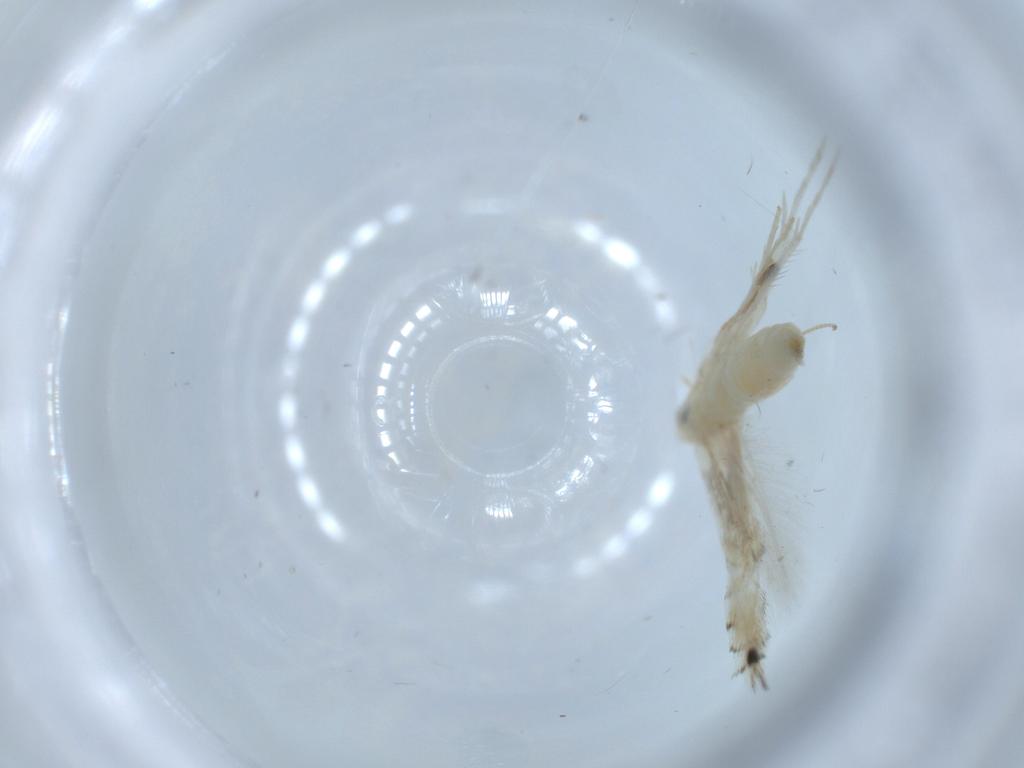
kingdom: Animalia
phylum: Arthropoda
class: Insecta
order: Lepidoptera
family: Gracillariidae
